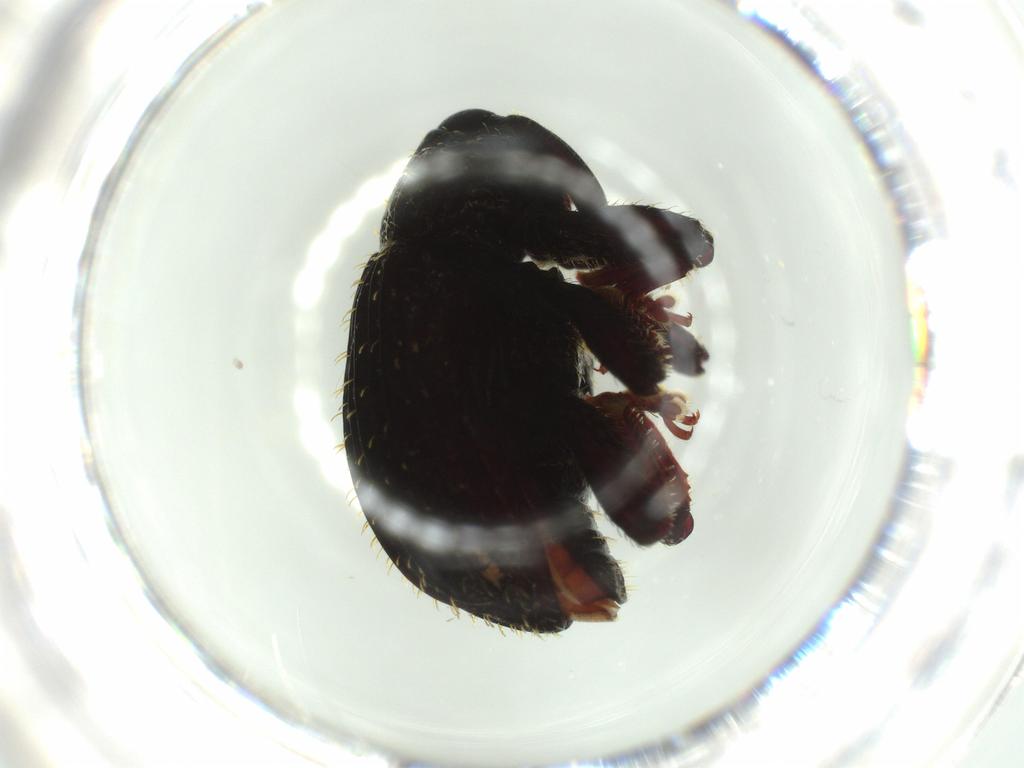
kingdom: Animalia
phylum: Arthropoda
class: Insecta
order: Coleoptera
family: Curculionidae
